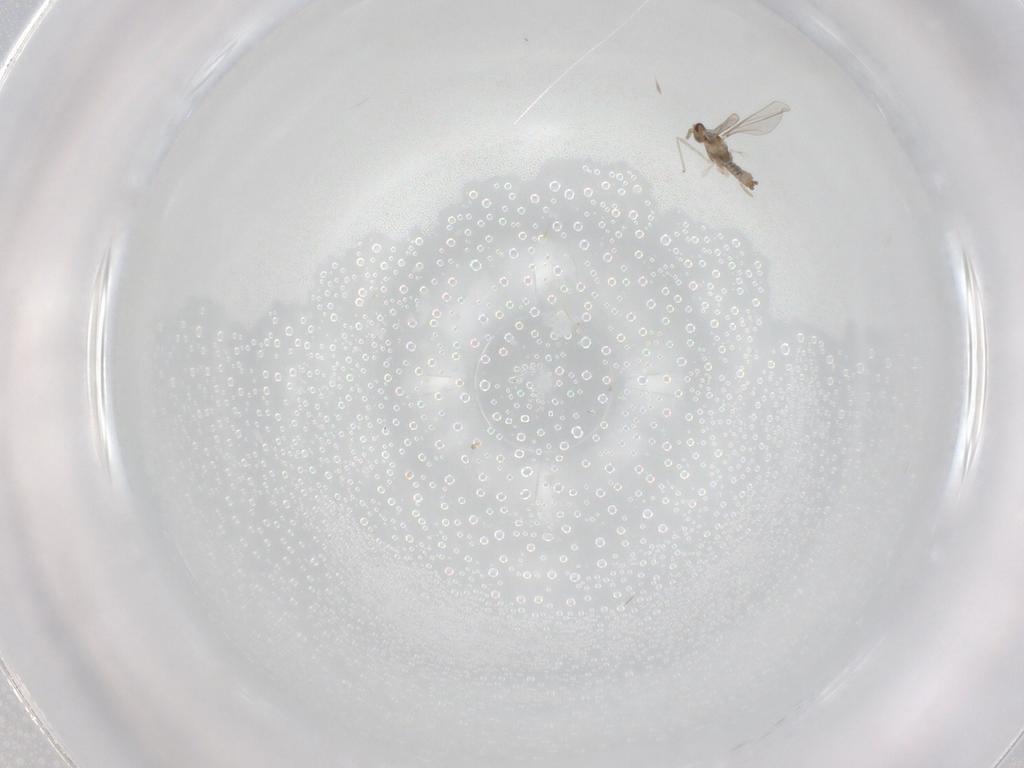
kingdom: Animalia
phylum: Arthropoda
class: Insecta
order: Diptera
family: Cecidomyiidae
